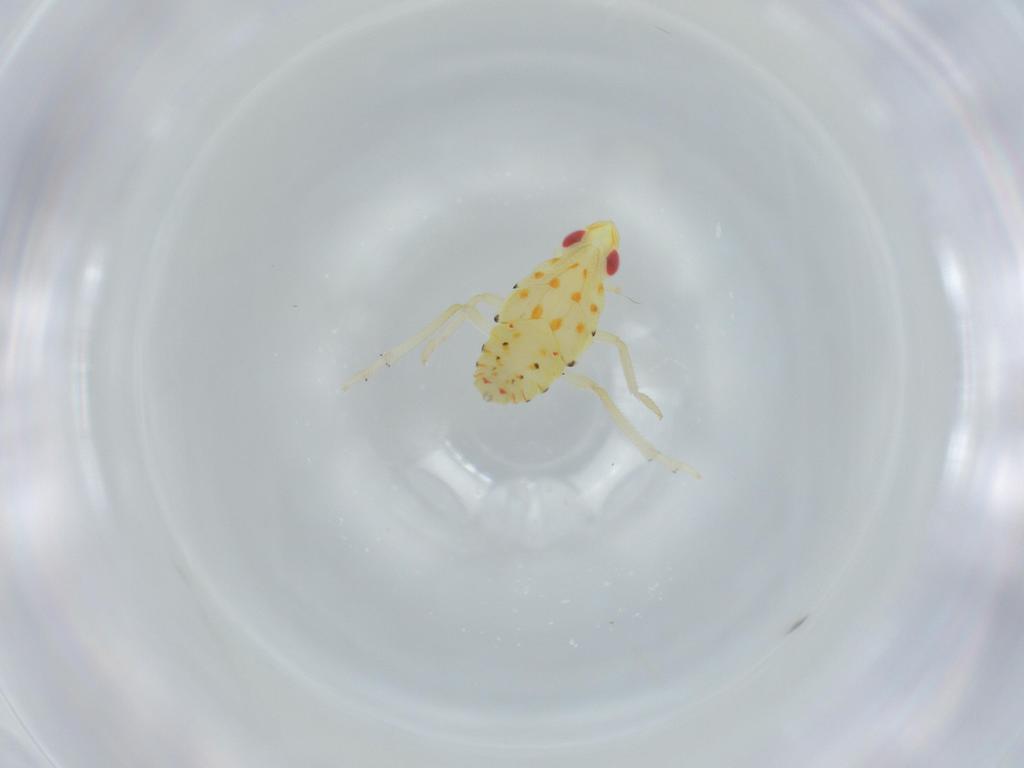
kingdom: Animalia
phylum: Arthropoda
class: Insecta
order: Hemiptera
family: Tropiduchidae
